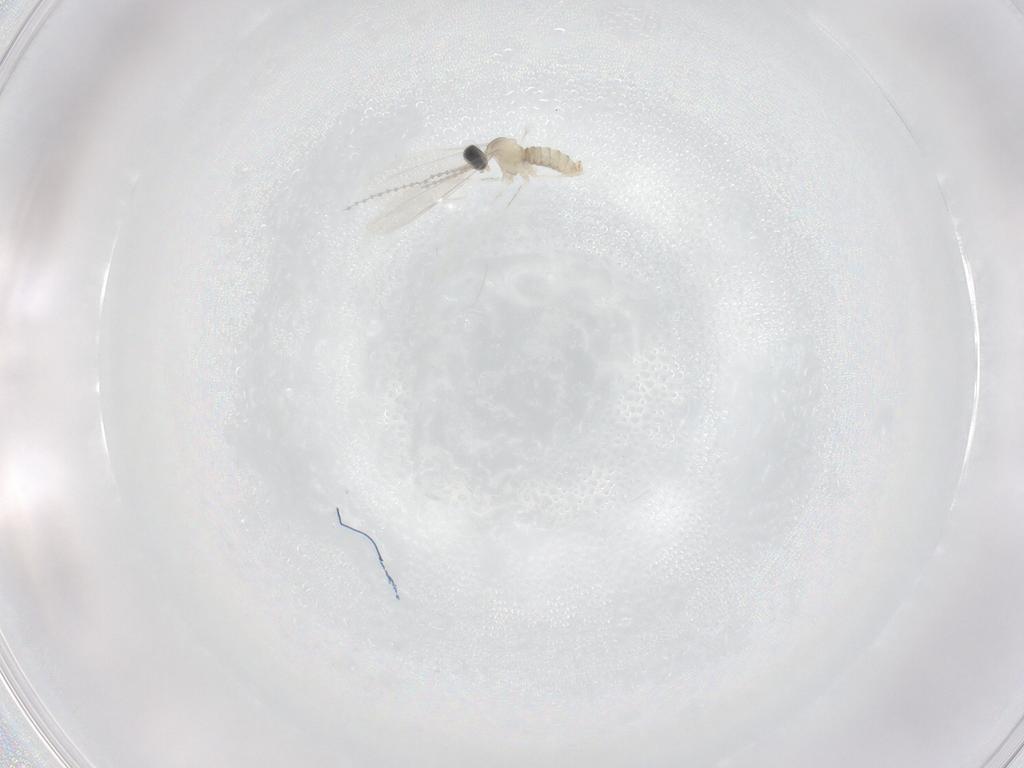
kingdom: Animalia
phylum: Arthropoda
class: Insecta
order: Diptera
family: Cecidomyiidae
